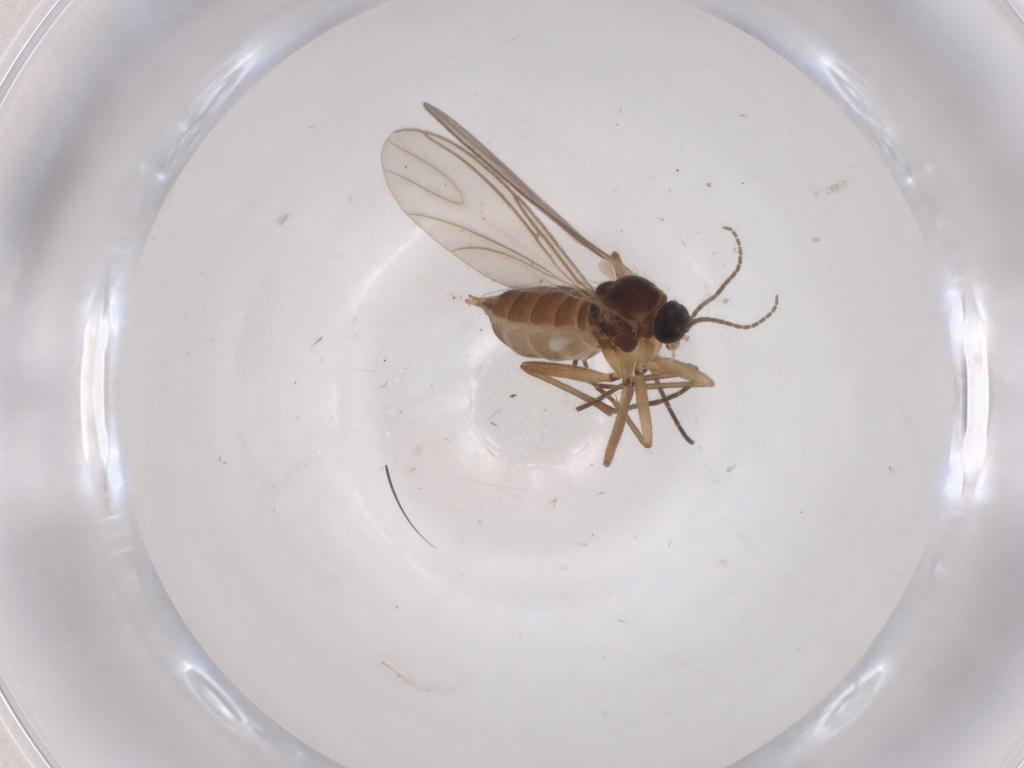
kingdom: Animalia
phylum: Arthropoda
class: Insecta
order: Diptera
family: Sciaridae
